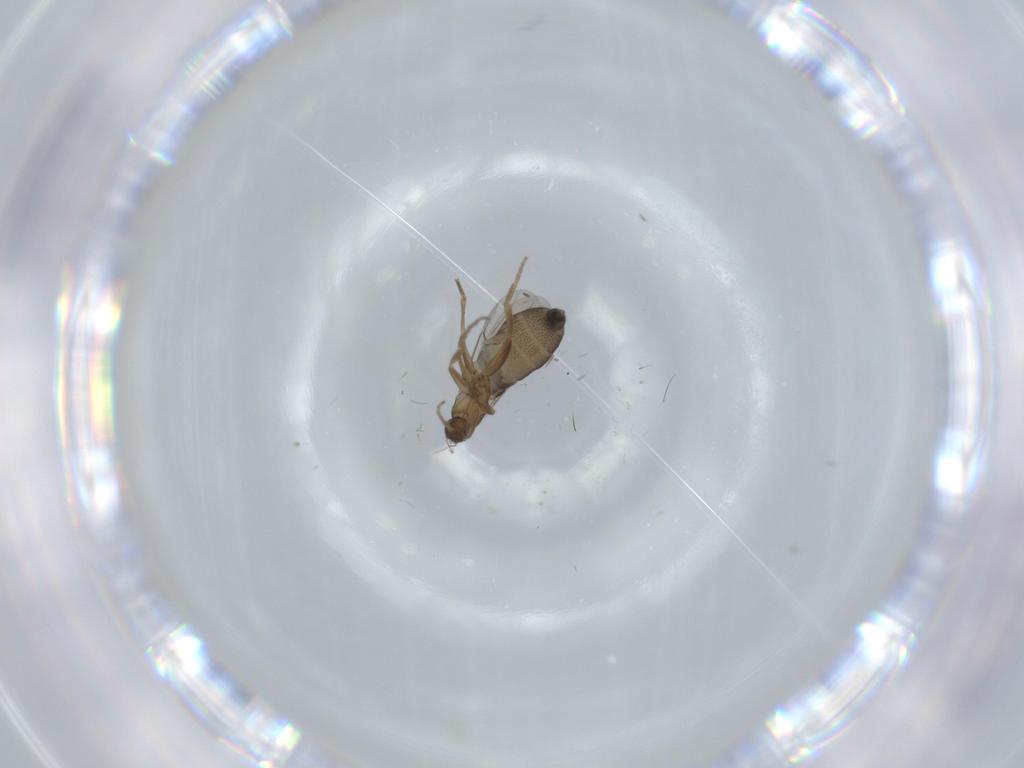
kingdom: Animalia
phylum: Arthropoda
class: Insecta
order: Diptera
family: Phoridae
